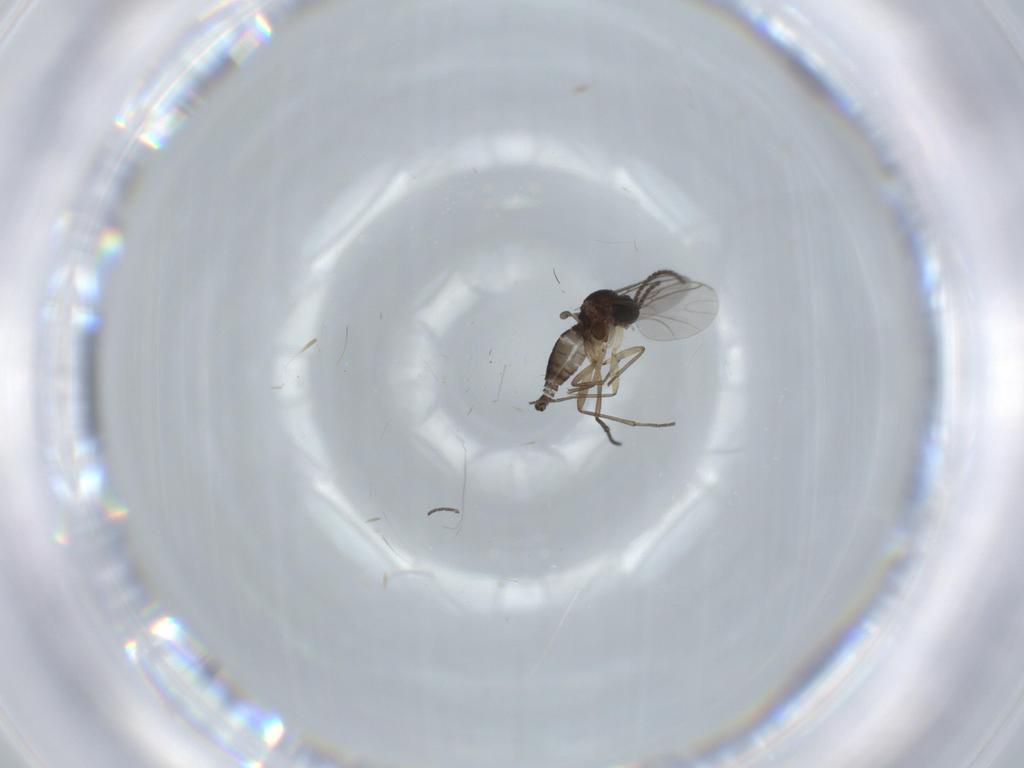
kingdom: Animalia
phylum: Arthropoda
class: Insecta
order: Diptera
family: Sciaridae
